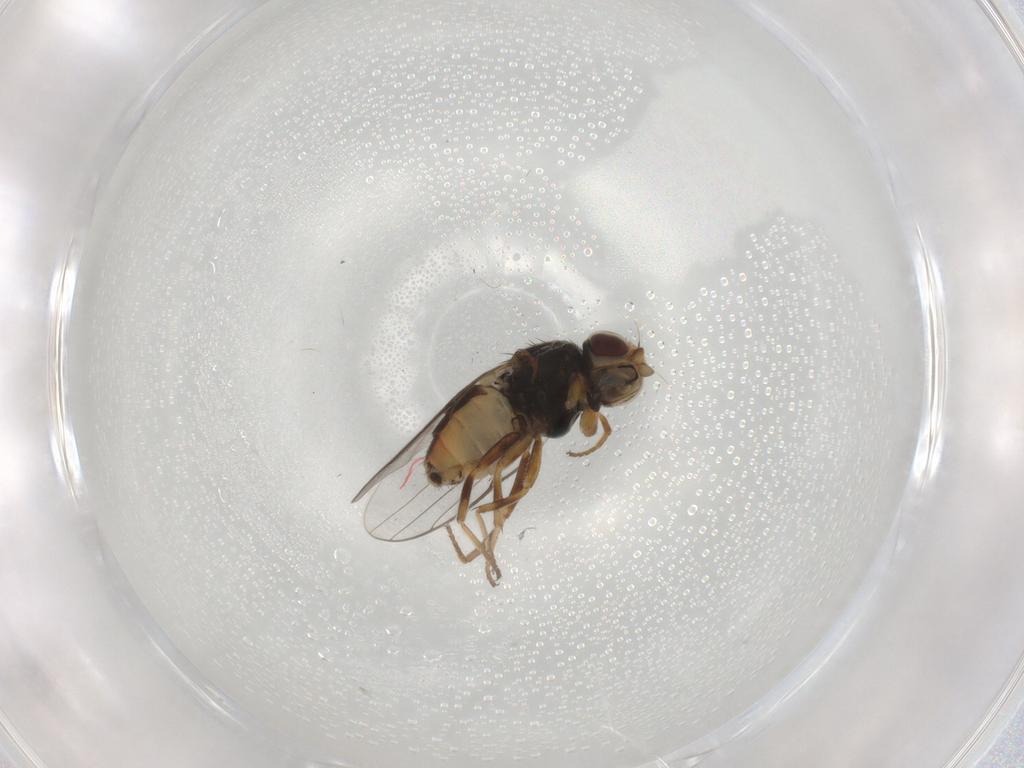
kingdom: Animalia
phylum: Arthropoda
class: Insecta
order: Diptera
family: Chloropidae
